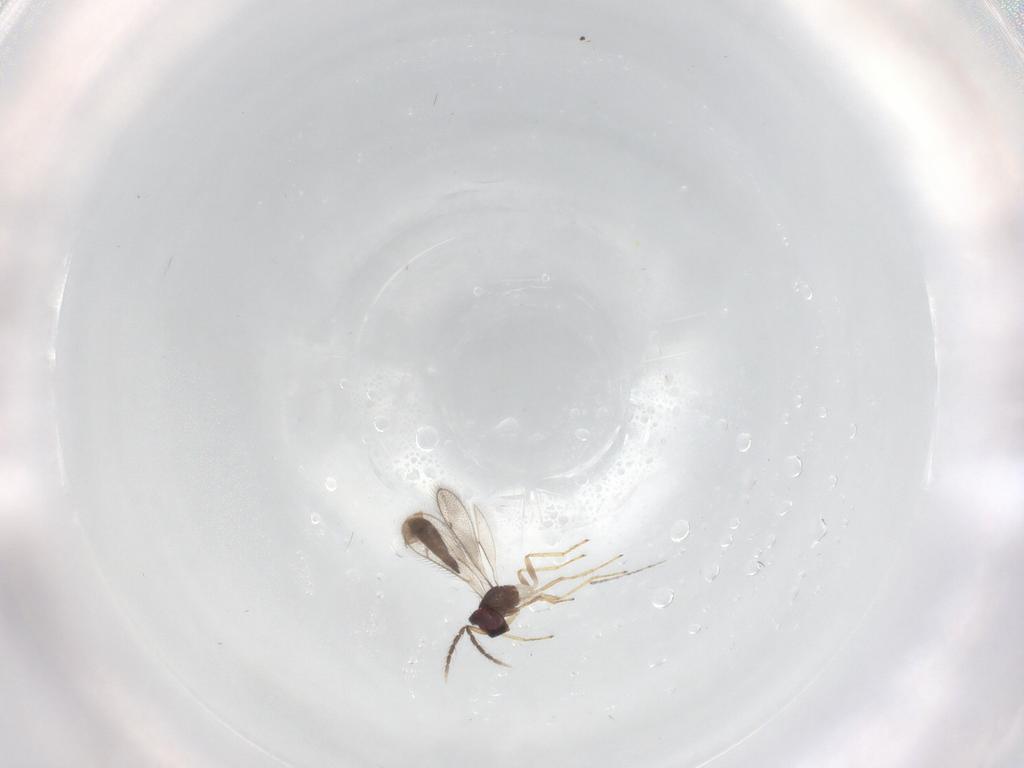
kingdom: Animalia
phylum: Arthropoda
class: Insecta
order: Hymenoptera
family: Eulophidae
